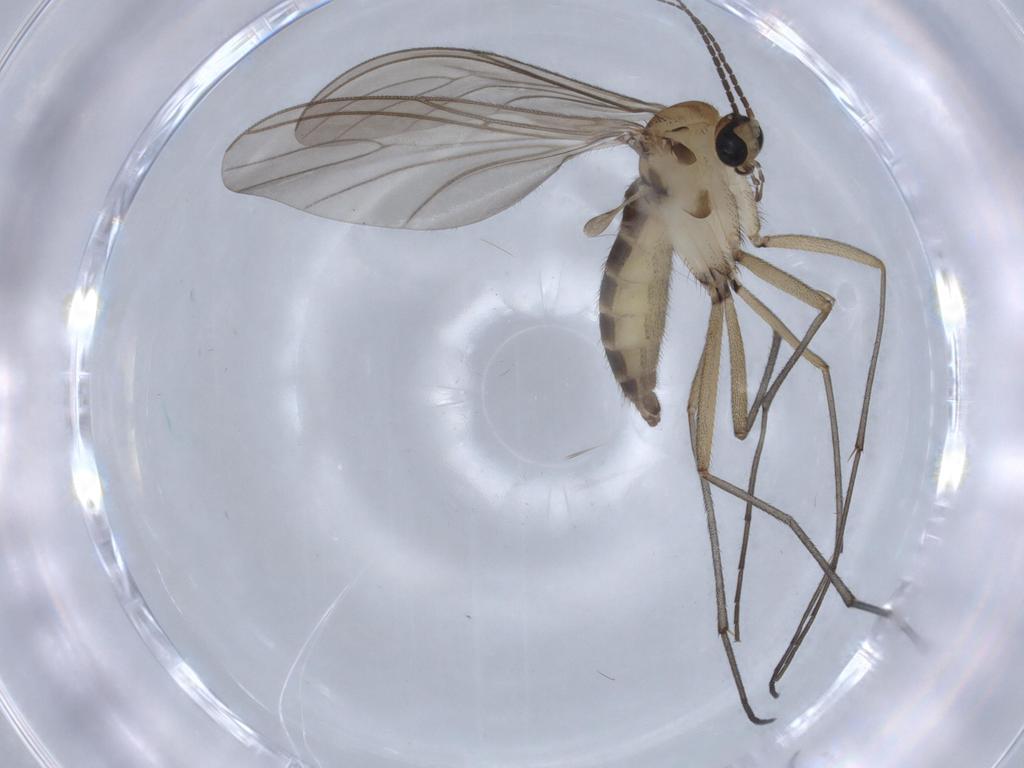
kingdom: Animalia
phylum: Arthropoda
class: Insecta
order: Diptera
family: Sciaridae
